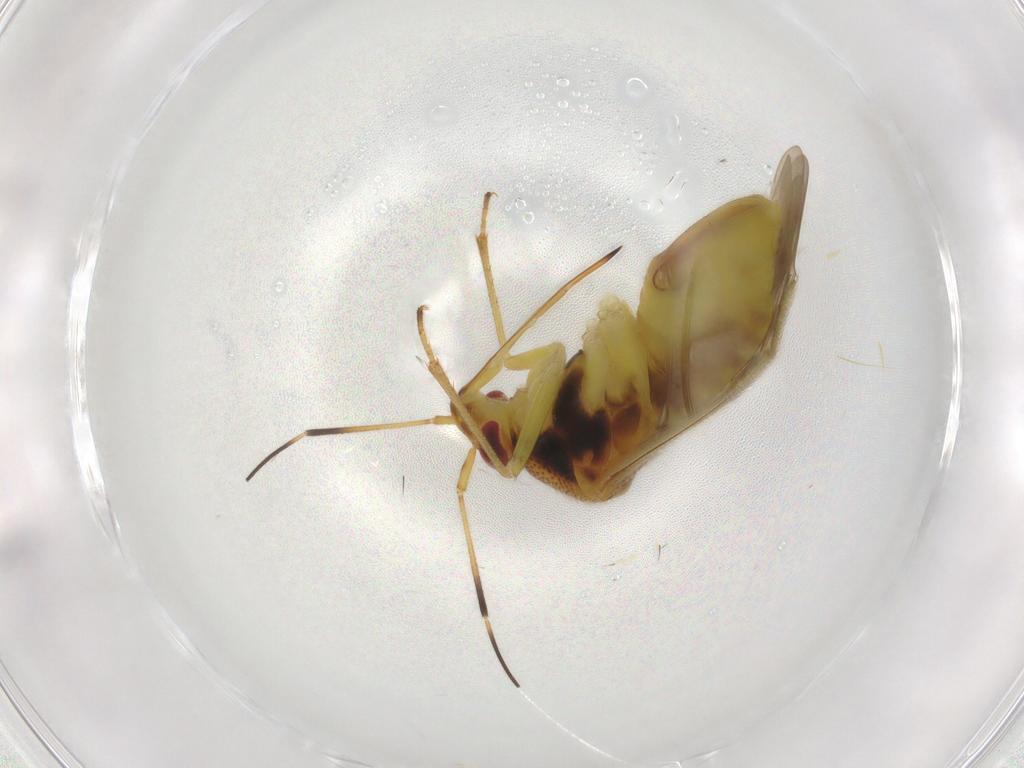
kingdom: Animalia
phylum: Arthropoda
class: Insecta
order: Hemiptera
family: Miridae
